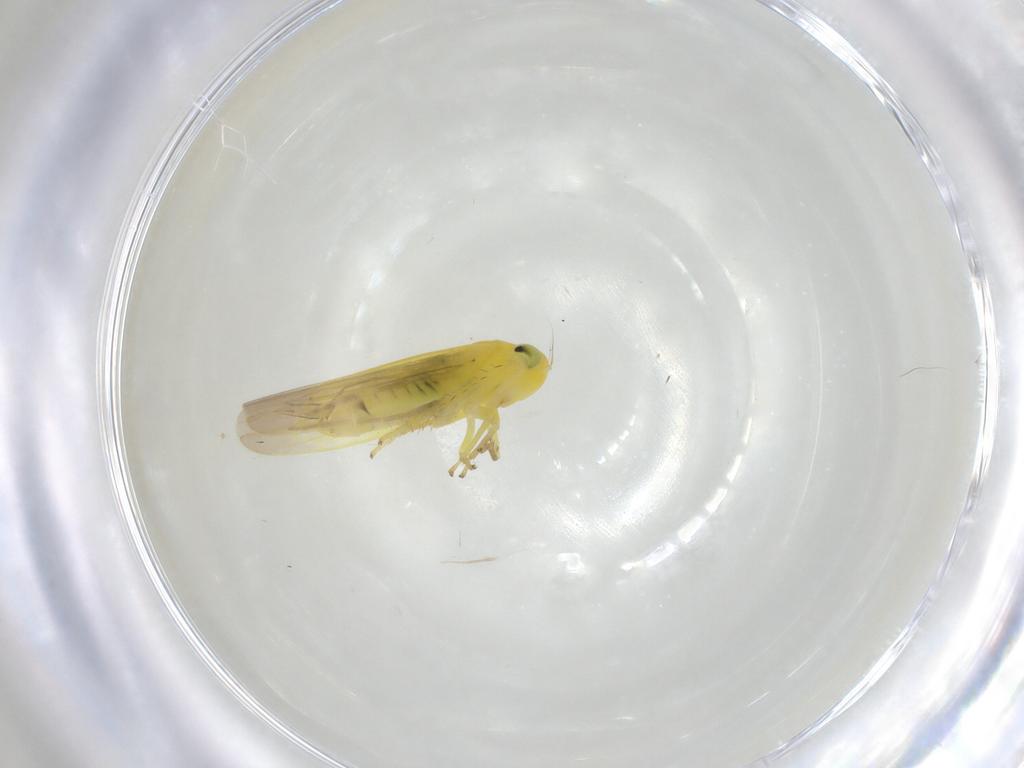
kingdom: Animalia
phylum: Arthropoda
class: Insecta
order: Hemiptera
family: Cicadellidae
